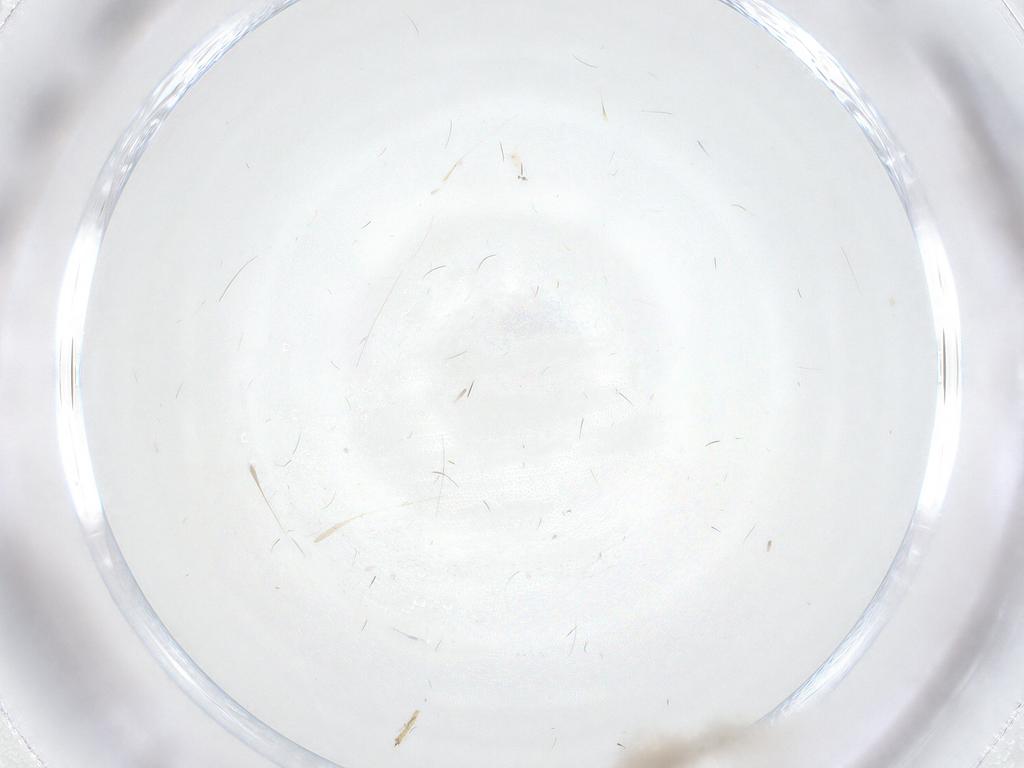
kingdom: Animalia
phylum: Arthropoda
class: Insecta
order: Diptera
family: Chironomidae
